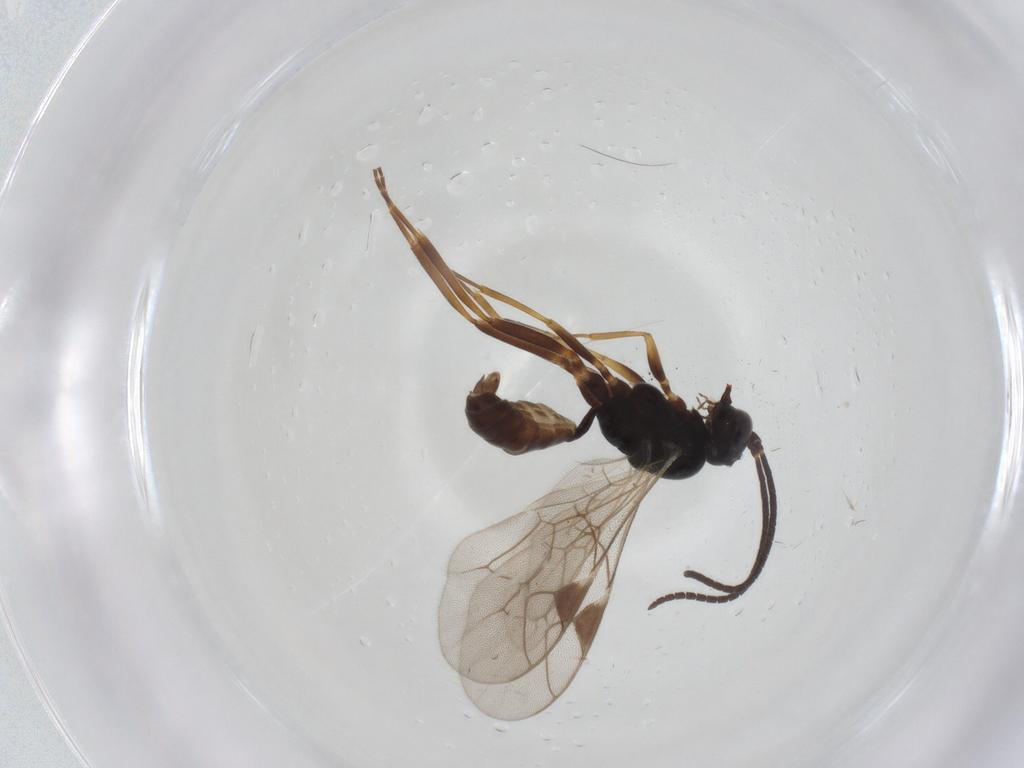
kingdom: Animalia
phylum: Arthropoda
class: Insecta
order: Hymenoptera
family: Ichneumonidae
